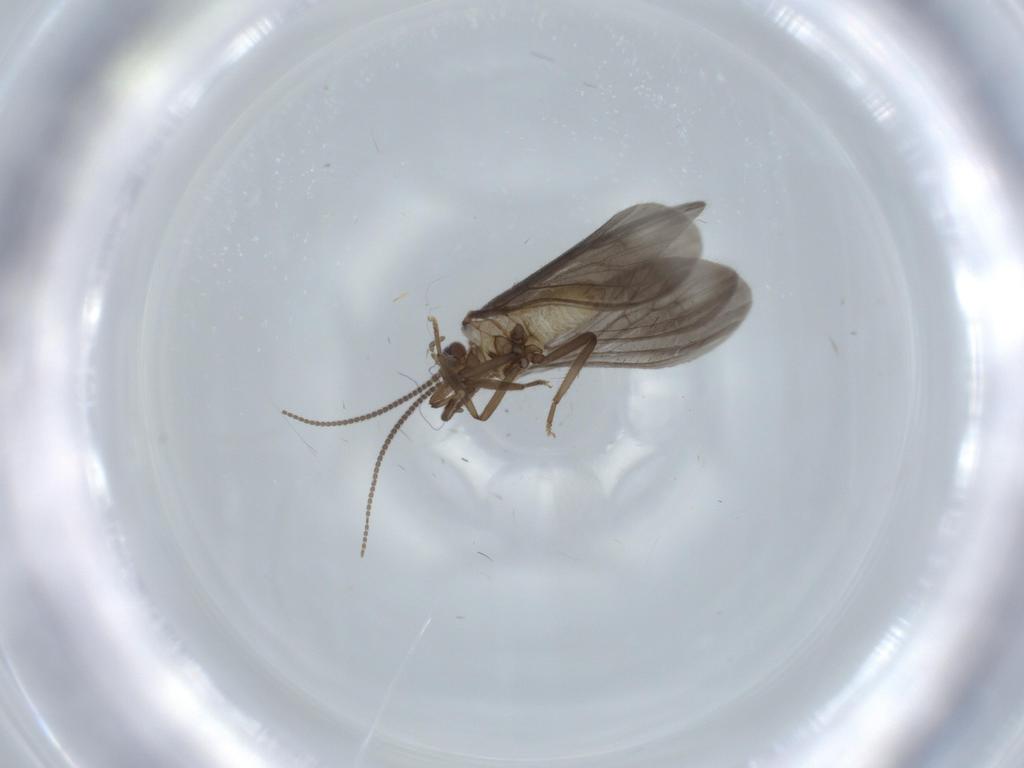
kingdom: Animalia
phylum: Arthropoda
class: Insecta
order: Neuroptera
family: Coniopterygidae
